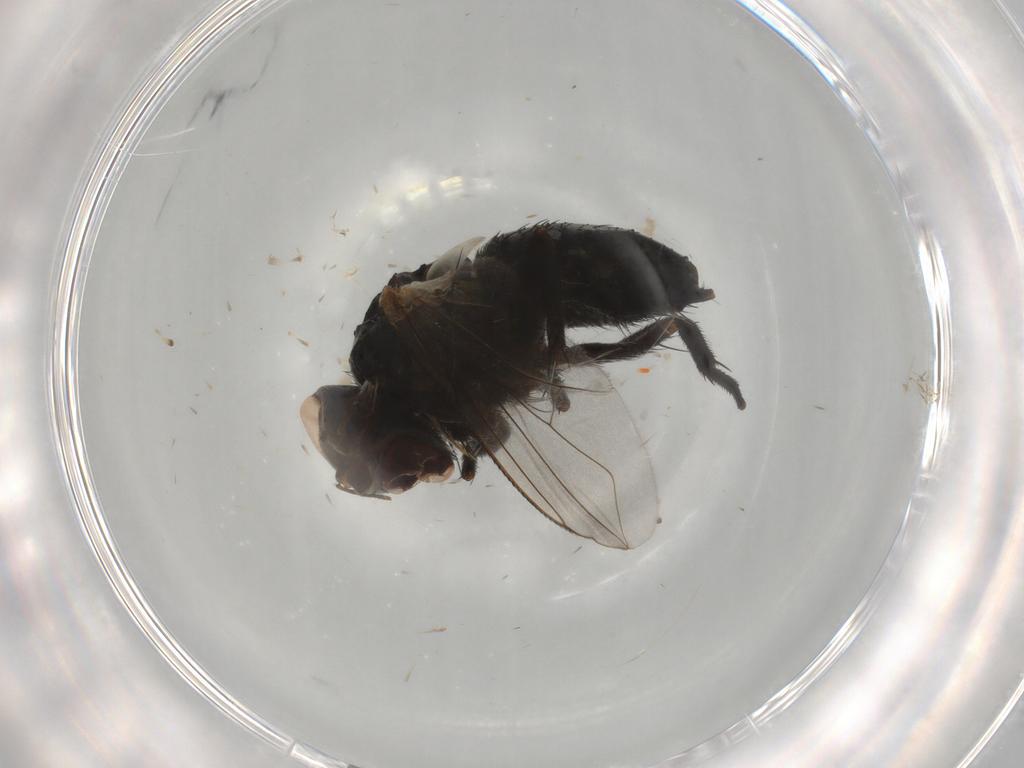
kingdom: Animalia
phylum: Arthropoda
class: Insecta
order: Diptera
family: Tachinidae
